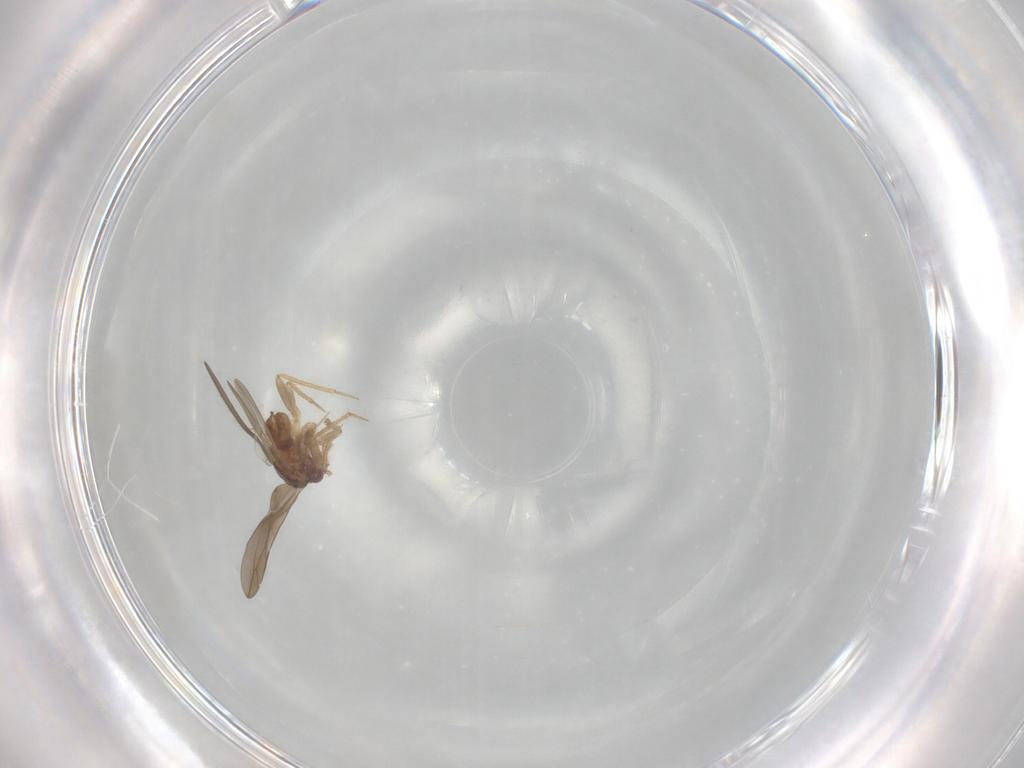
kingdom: Animalia
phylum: Arthropoda
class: Insecta
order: Hemiptera
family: Ceratocombidae
